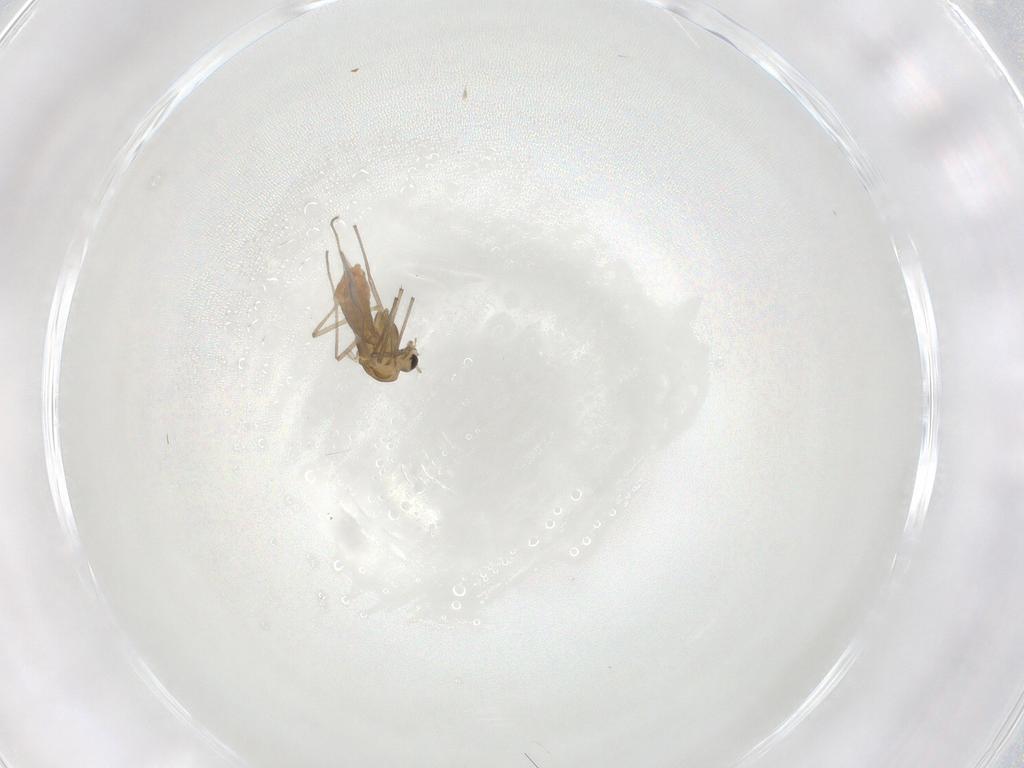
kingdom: Animalia
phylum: Arthropoda
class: Insecta
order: Diptera
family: Chironomidae
